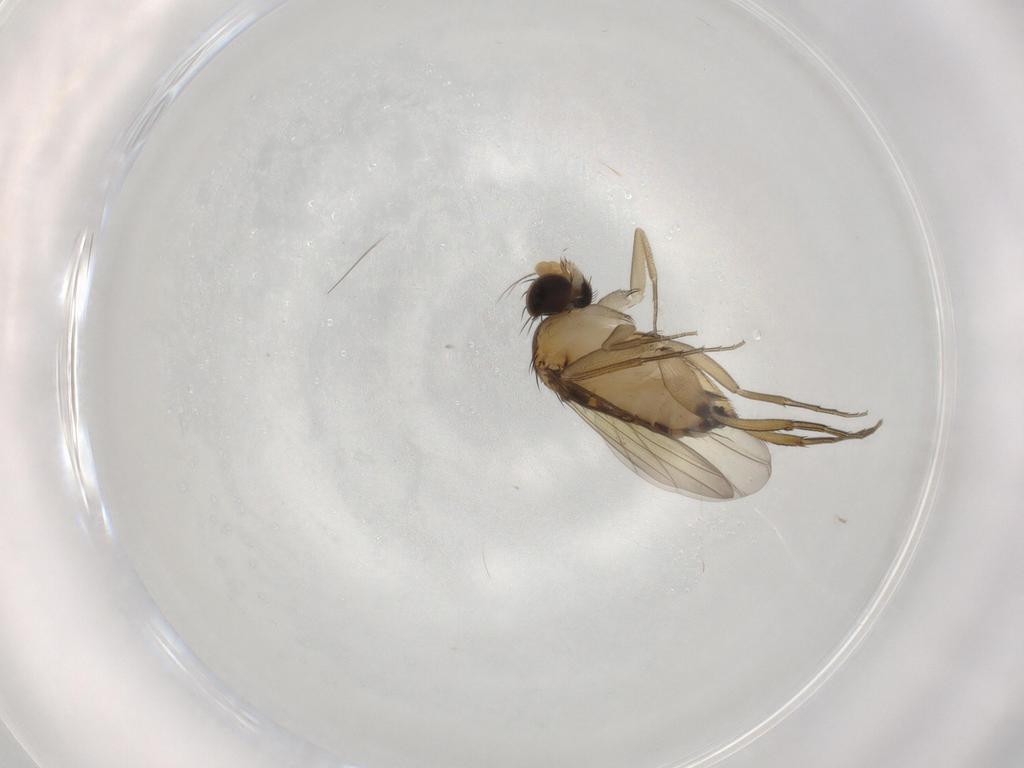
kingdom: Animalia
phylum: Arthropoda
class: Insecta
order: Diptera
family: Phoridae
